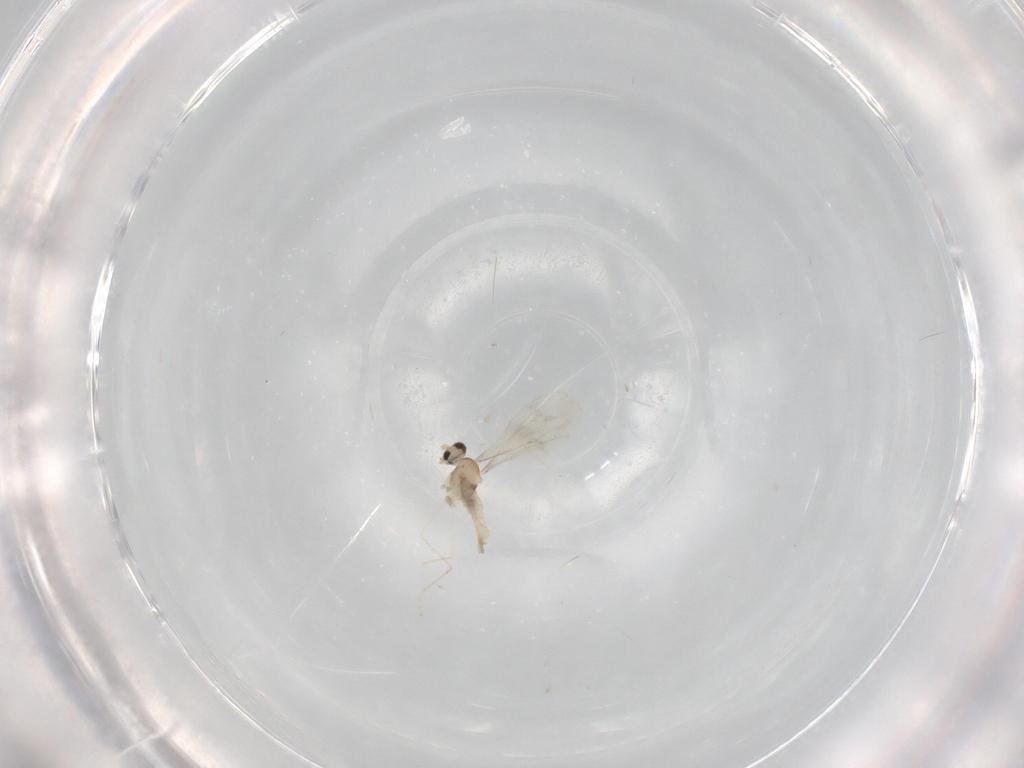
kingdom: Animalia
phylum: Arthropoda
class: Insecta
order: Diptera
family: Cecidomyiidae
